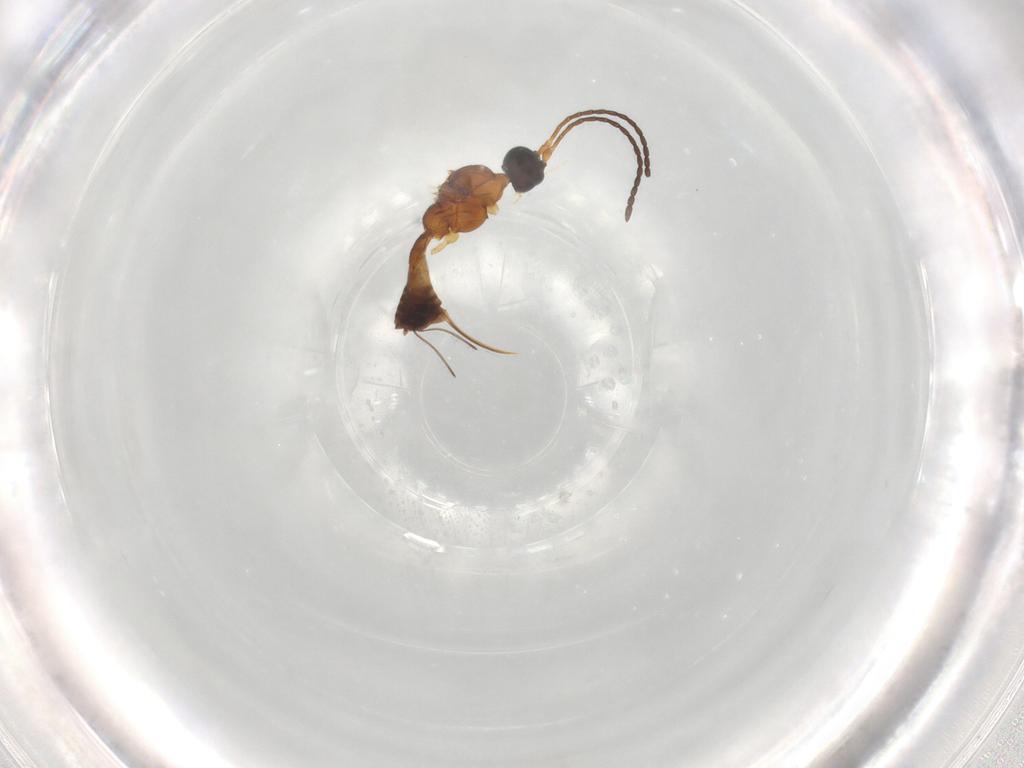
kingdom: Animalia
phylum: Arthropoda
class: Insecta
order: Hymenoptera
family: Braconidae
